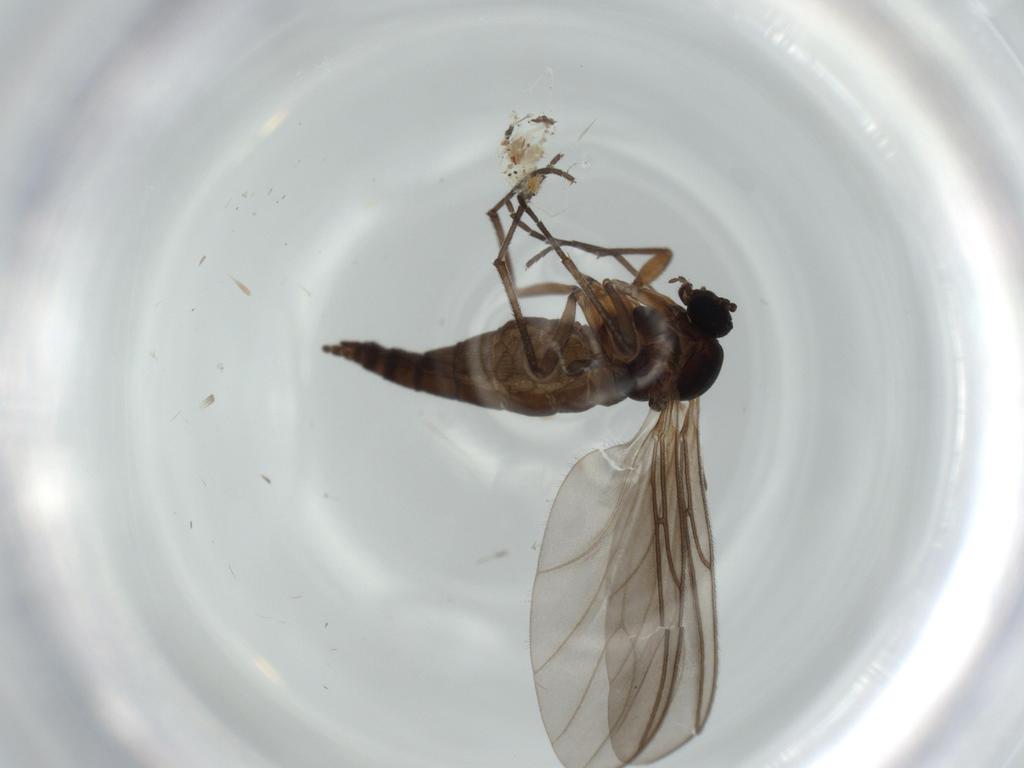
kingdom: Animalia
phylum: Arthropoda
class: Insecta
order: Diptera
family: Sciaridae
